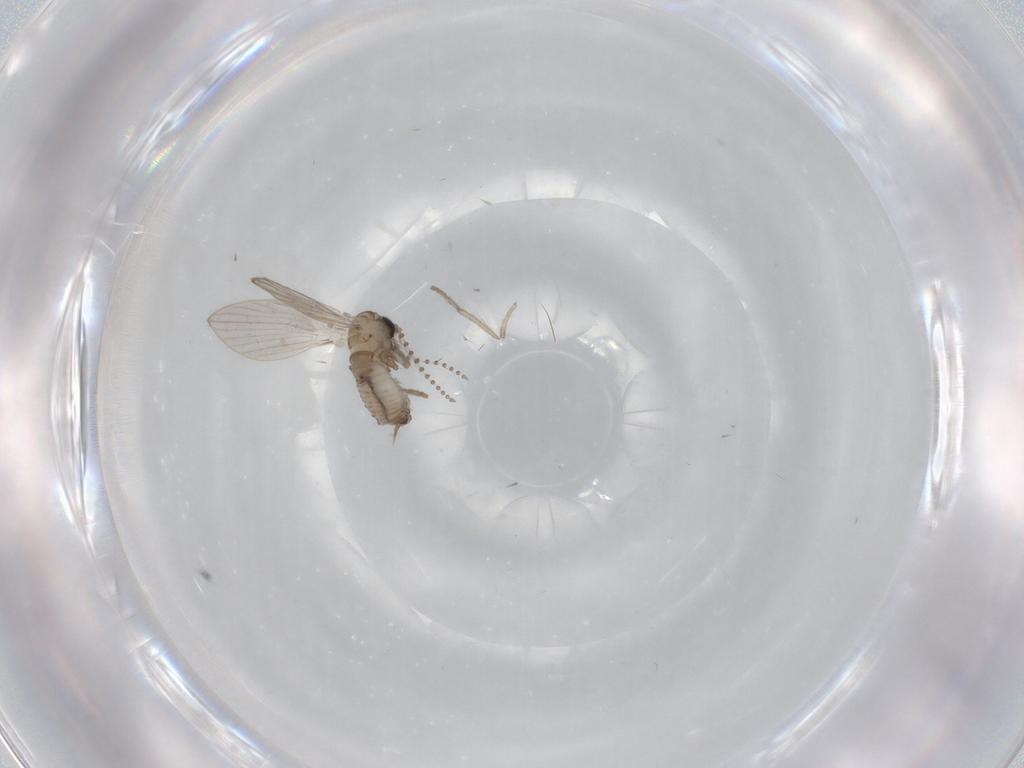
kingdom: Animalia
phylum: Arthropoda
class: Insecta
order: Diptera
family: Psychodidae
